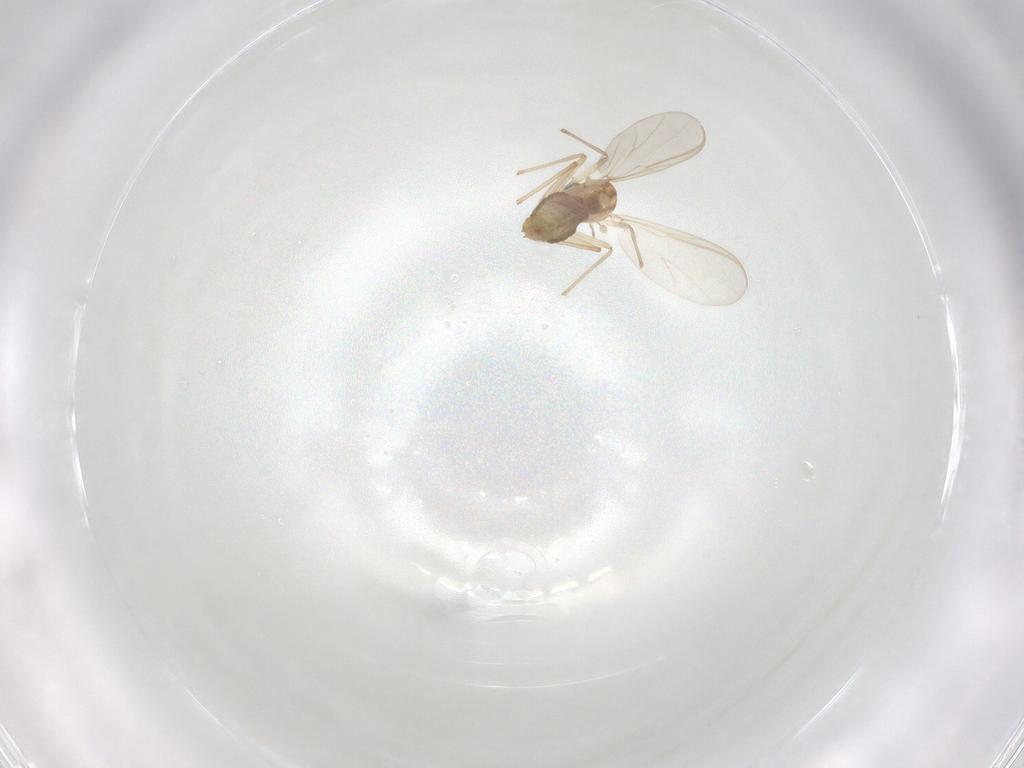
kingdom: Animalia
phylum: Arthropoda
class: Insecta
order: Diptera
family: Chironomidae
